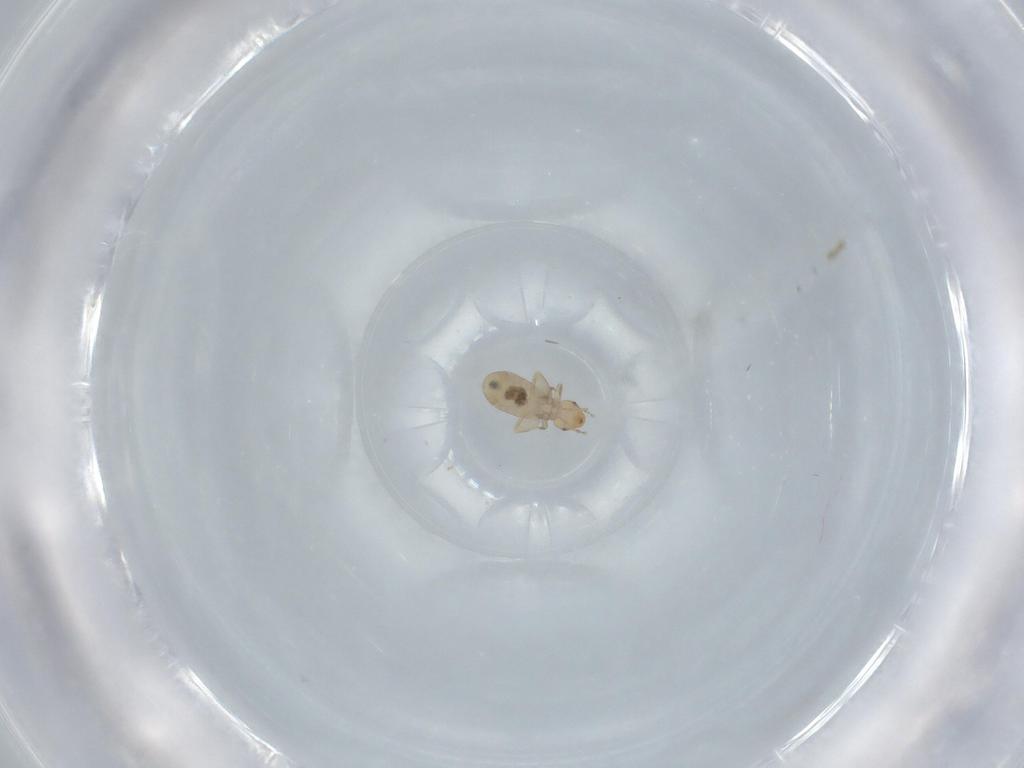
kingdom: Animalia
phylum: Arthropoda
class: Insecta
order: Psocodea
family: Liposcelididae
